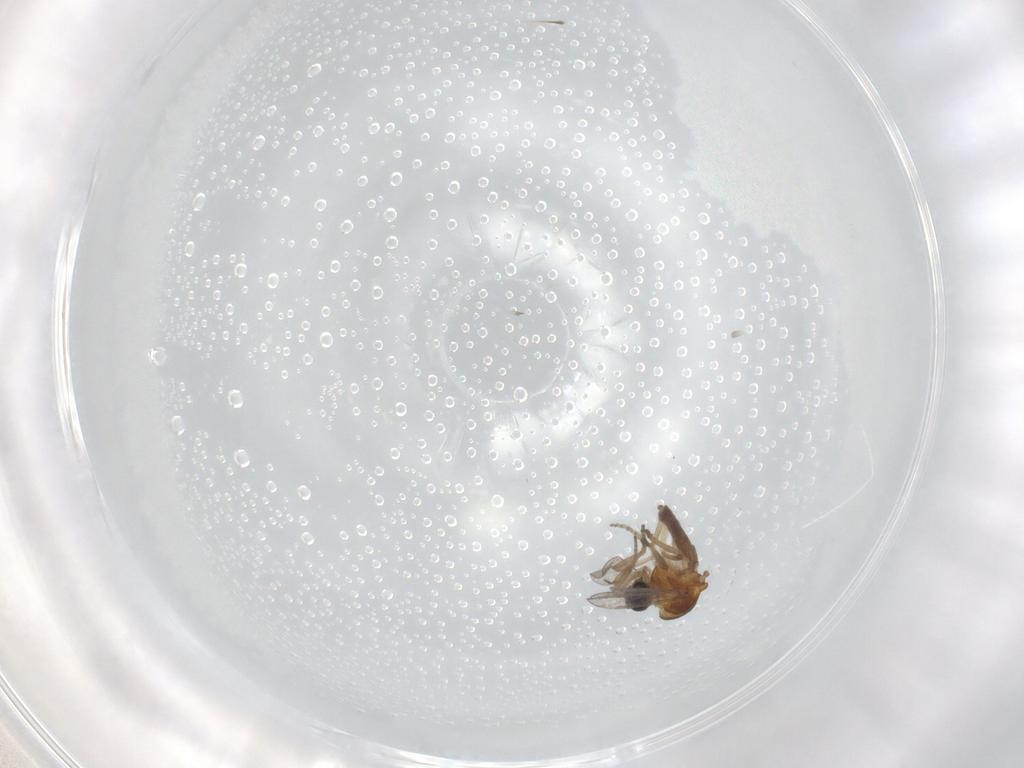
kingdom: Animalia
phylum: Arthropoda
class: Insecta
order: Diptera
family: Ceratopogonidae
